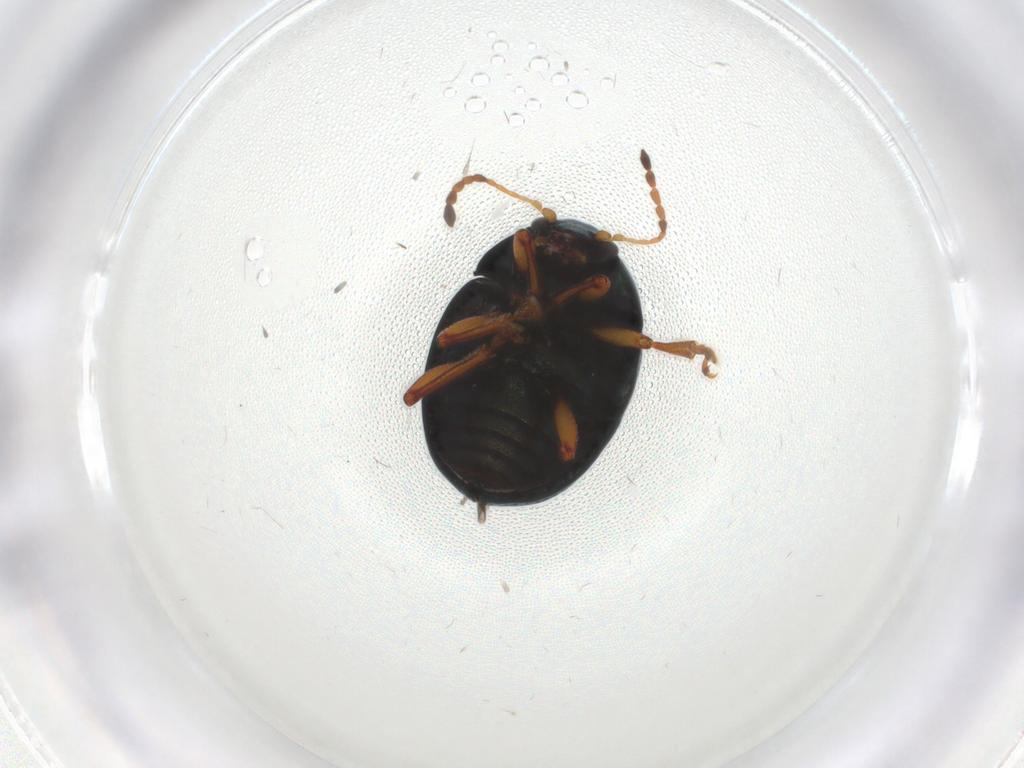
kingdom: Animalia
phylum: Arthropoda
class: Insecta
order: Coleoptera
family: Chrysomelidae
